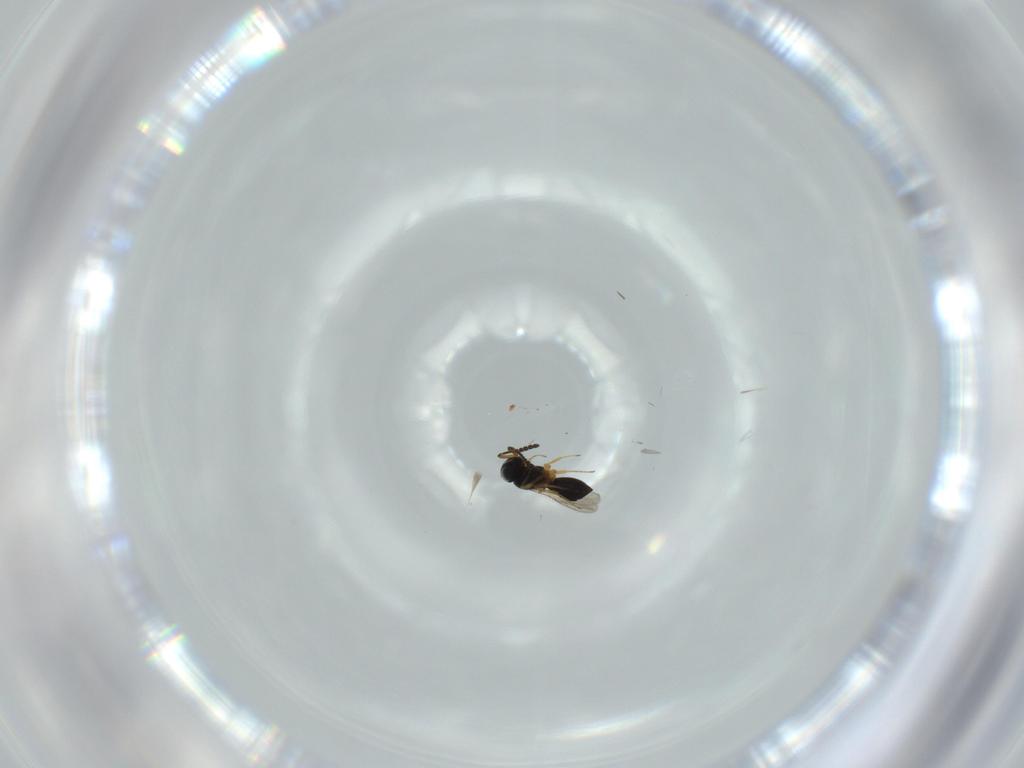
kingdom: Animalia
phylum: Arthropoda
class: Insecta
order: Hymenoptera
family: Scelionidae
